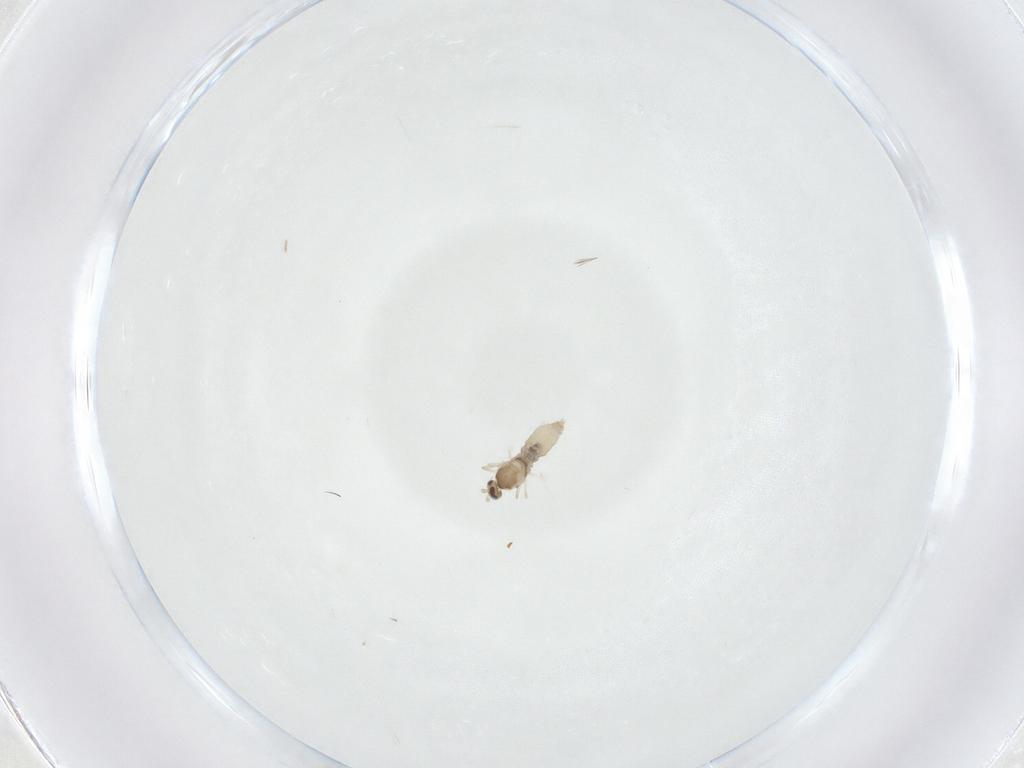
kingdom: Animalia
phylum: Arthropoda
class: Insecta
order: Diptera
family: Cecidomyiidae
